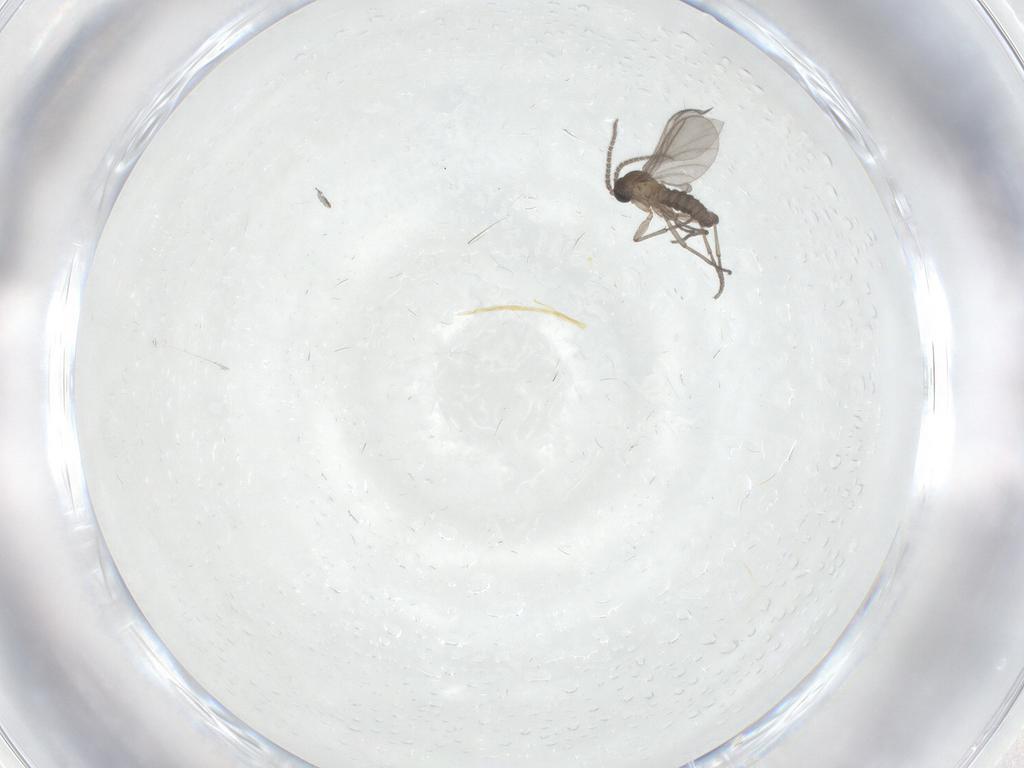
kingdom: Animalia
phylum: Arthropoda
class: Insecta
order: Diptera
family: Sciaridae
